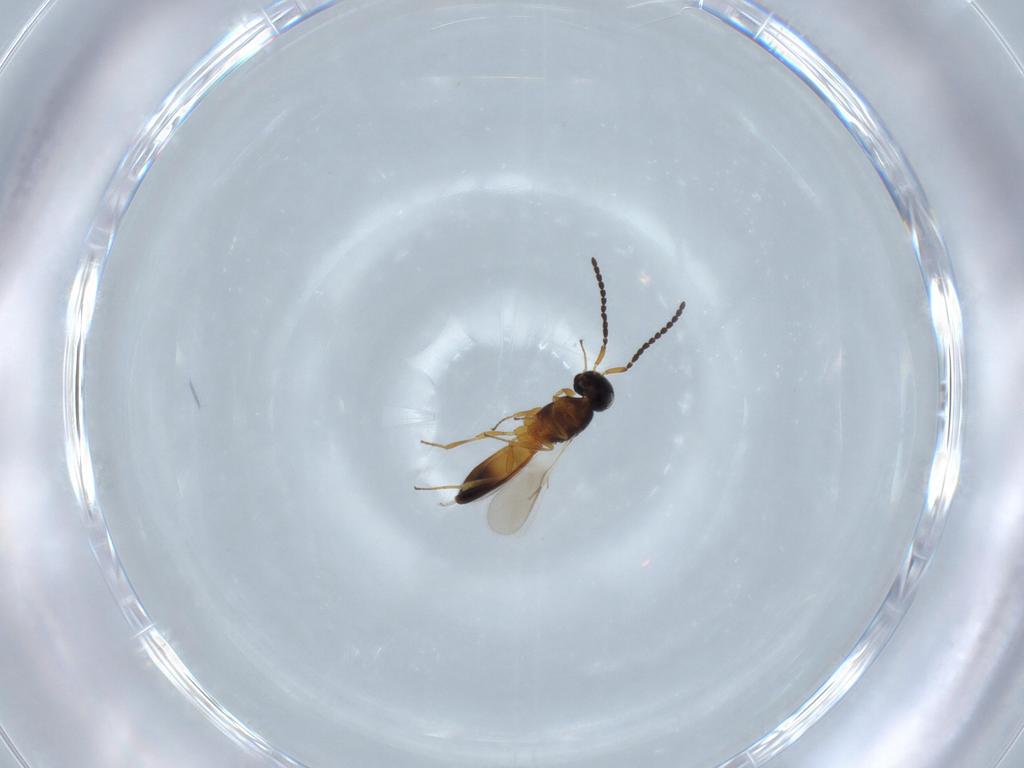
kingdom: Animalia
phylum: Arthropoda
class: Insecta
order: Hymenoptera
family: Scelionidae
